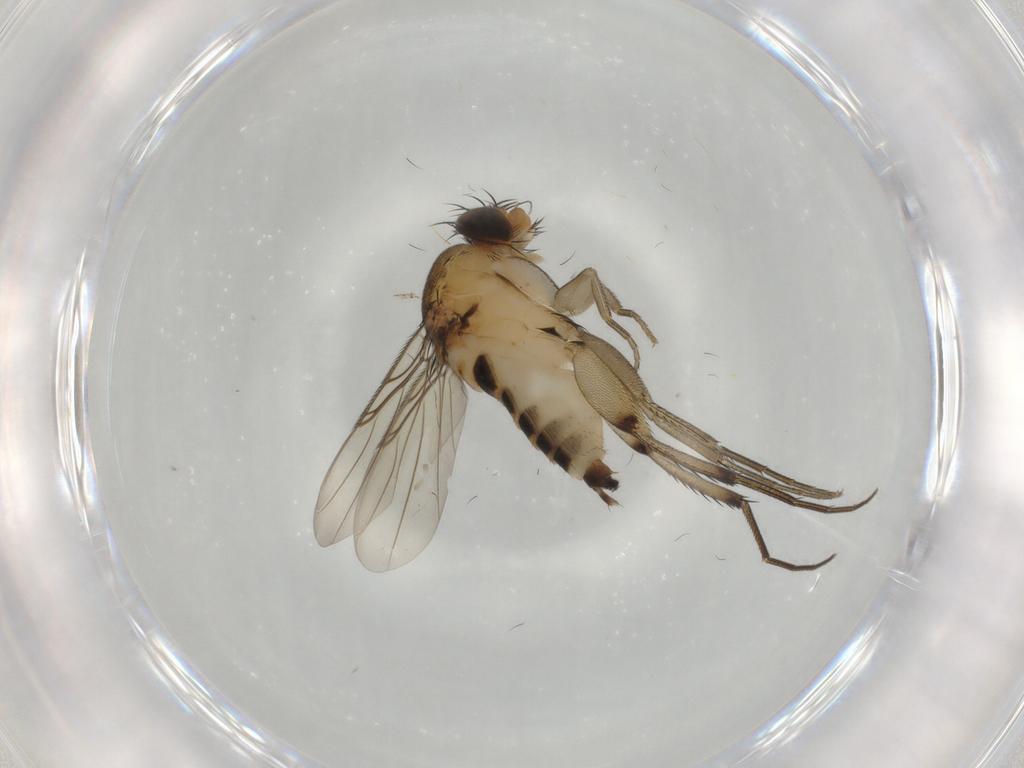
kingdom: Animalia
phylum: Arthropoda
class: Insecta
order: Diptera
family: Phoridae
